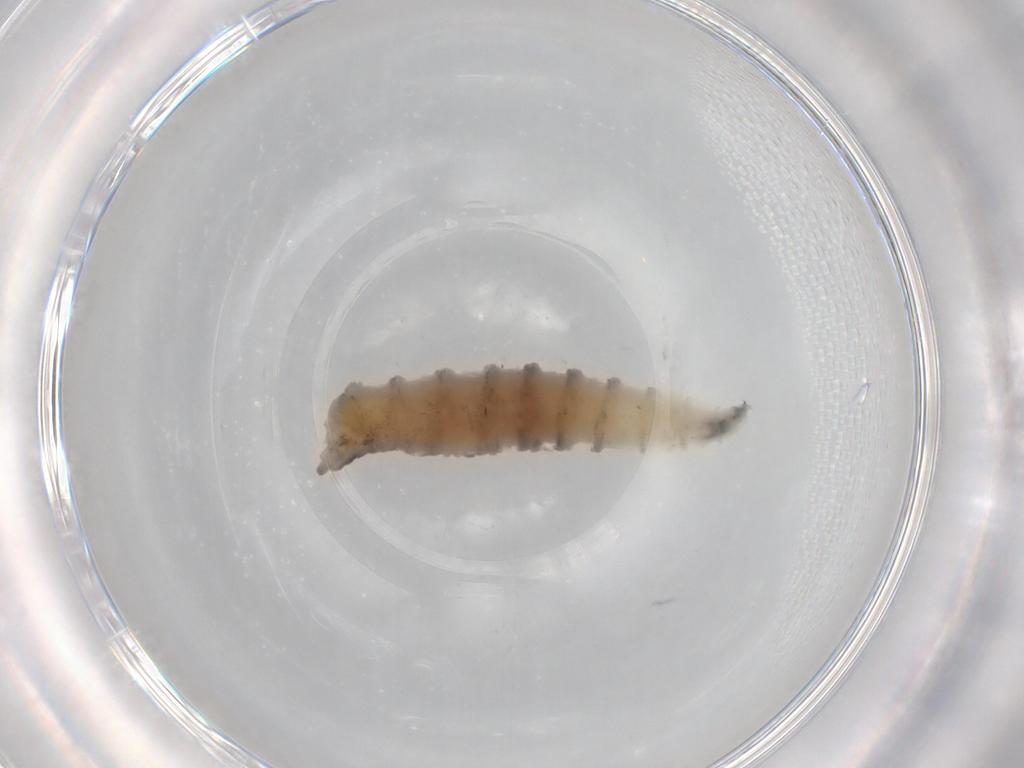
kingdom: Animalia
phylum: Arthropoda
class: Insecta
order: Diptera
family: Drosophilidae
